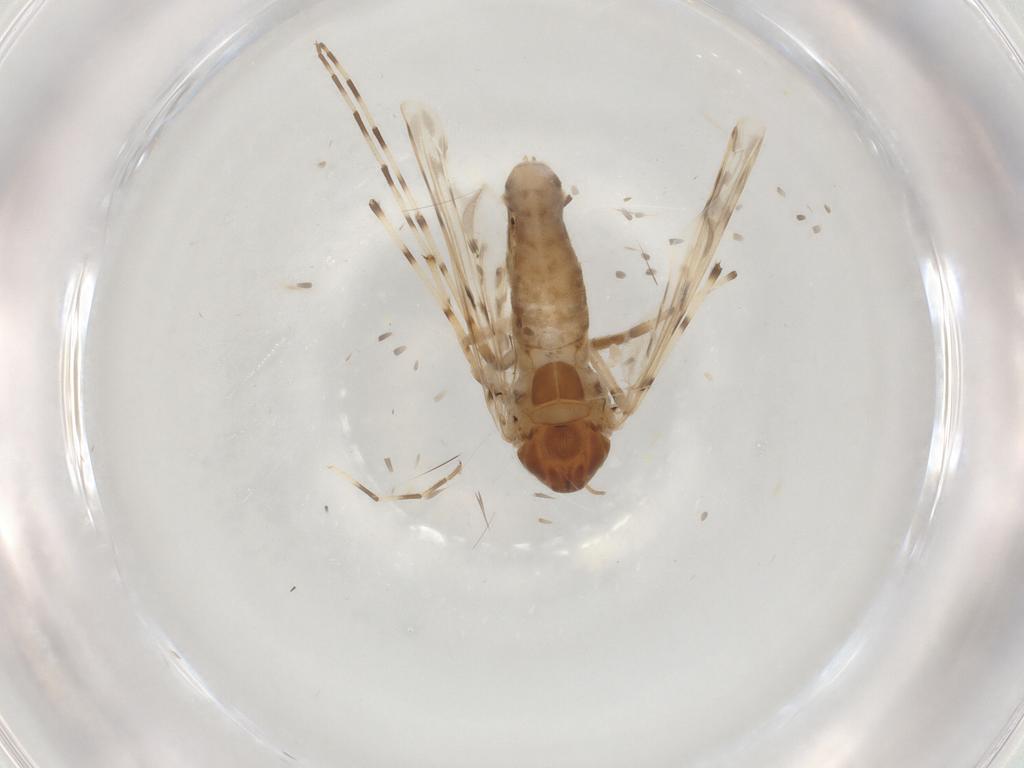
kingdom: Animalia
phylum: Arthropoda
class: Insecta
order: Diptera
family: Chironomidae
